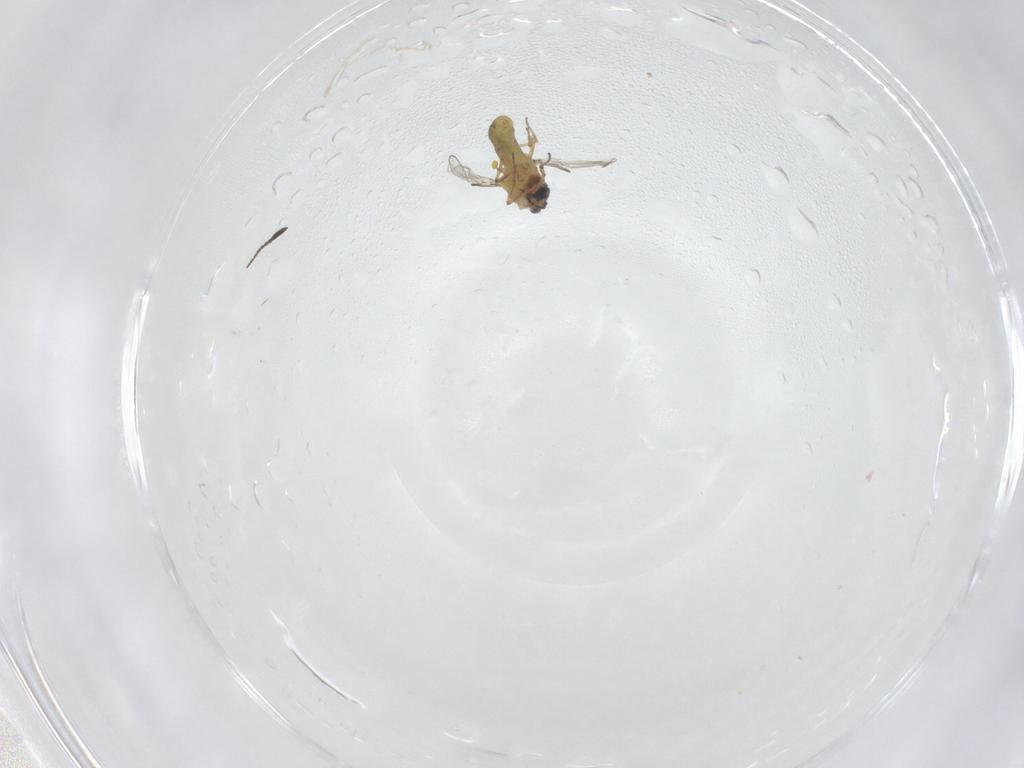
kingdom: Animalia
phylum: Arthropoda
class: Insecta
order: Diptera
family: Ceratopogonidae
